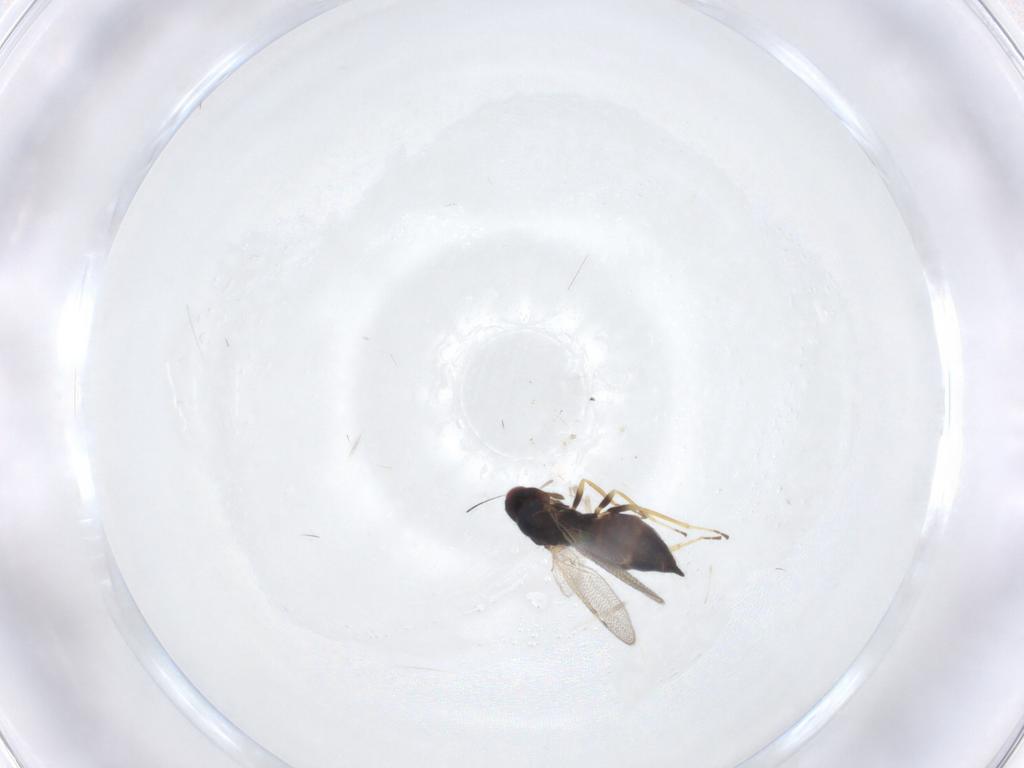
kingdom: Animalia
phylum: Arthropoda
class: Insecta
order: Hymenoptera
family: Eulophidae
